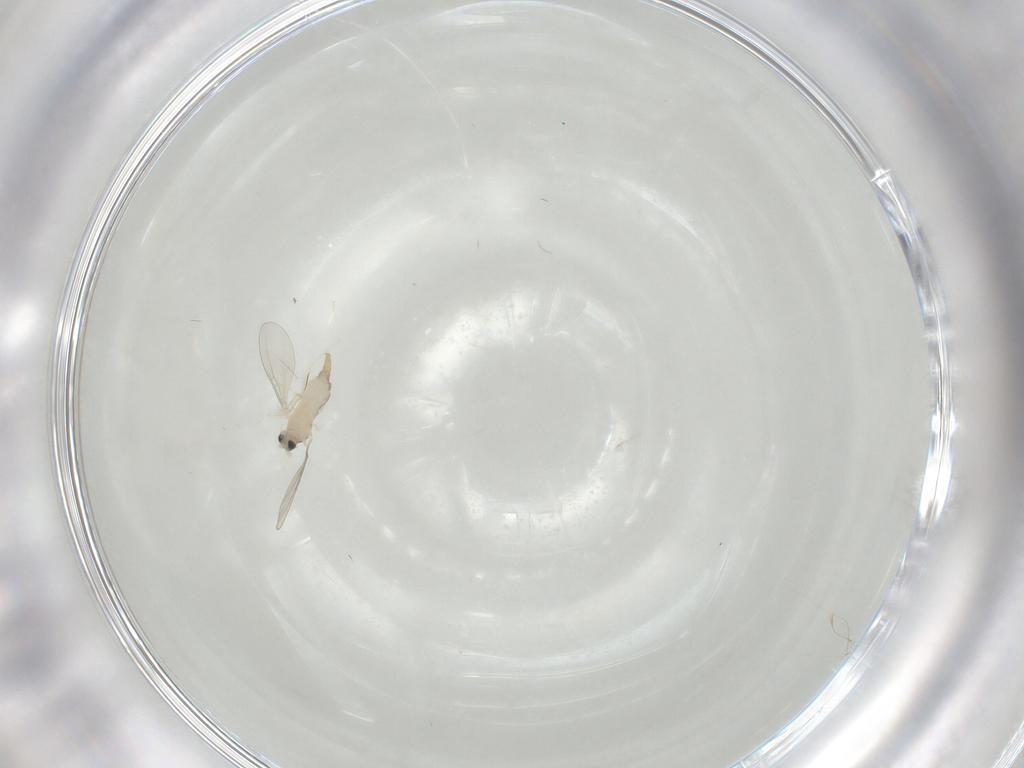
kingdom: Animalia
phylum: Arthropoda
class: Insecta
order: Diptera
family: Cecidomyiidae
